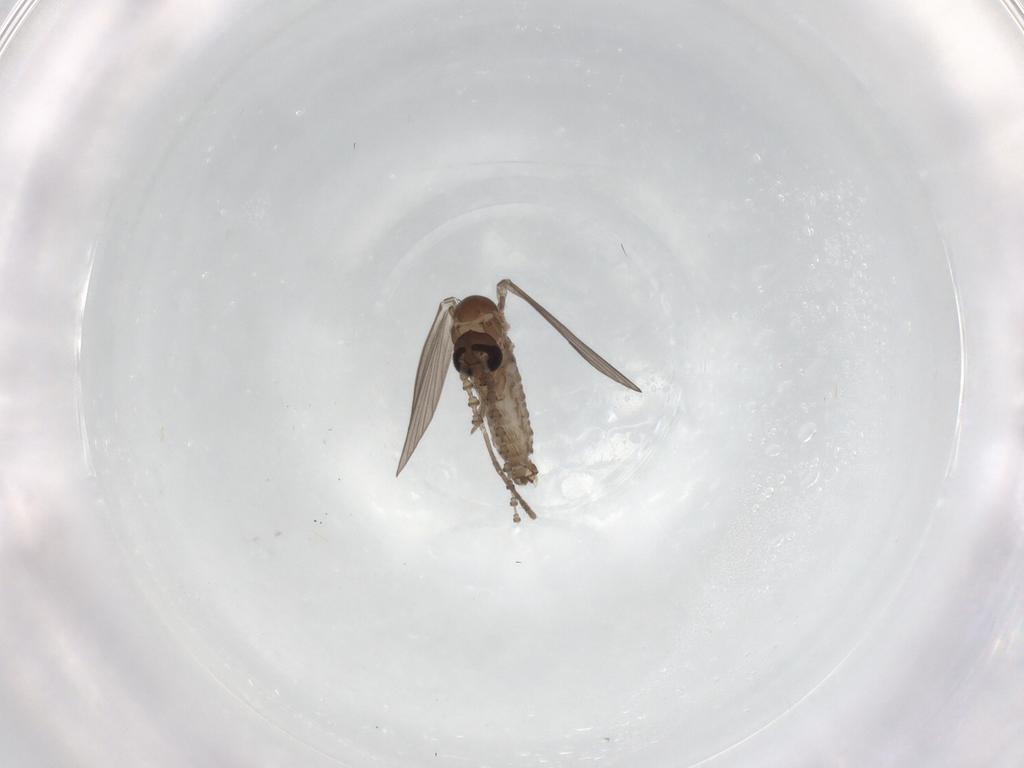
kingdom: Animalia
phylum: Arthropoda
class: Insecta
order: Diptera
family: Psychodidae
